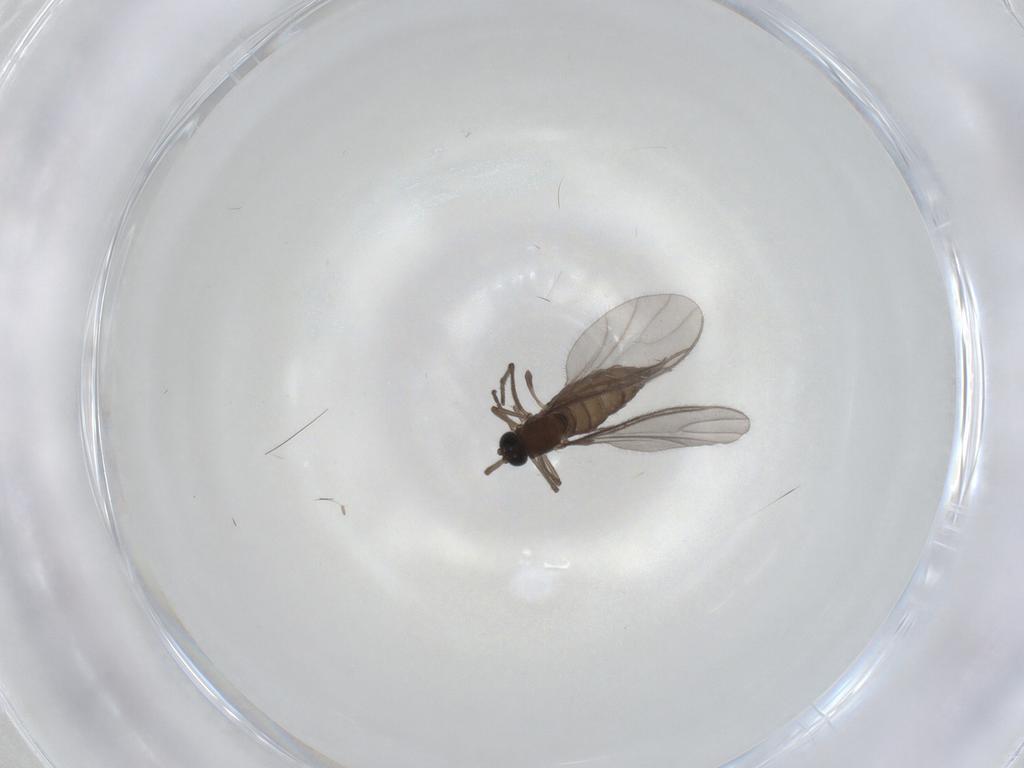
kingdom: Animalia
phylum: Arthropoda
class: Insecta
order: Diptera
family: Sciaridae
